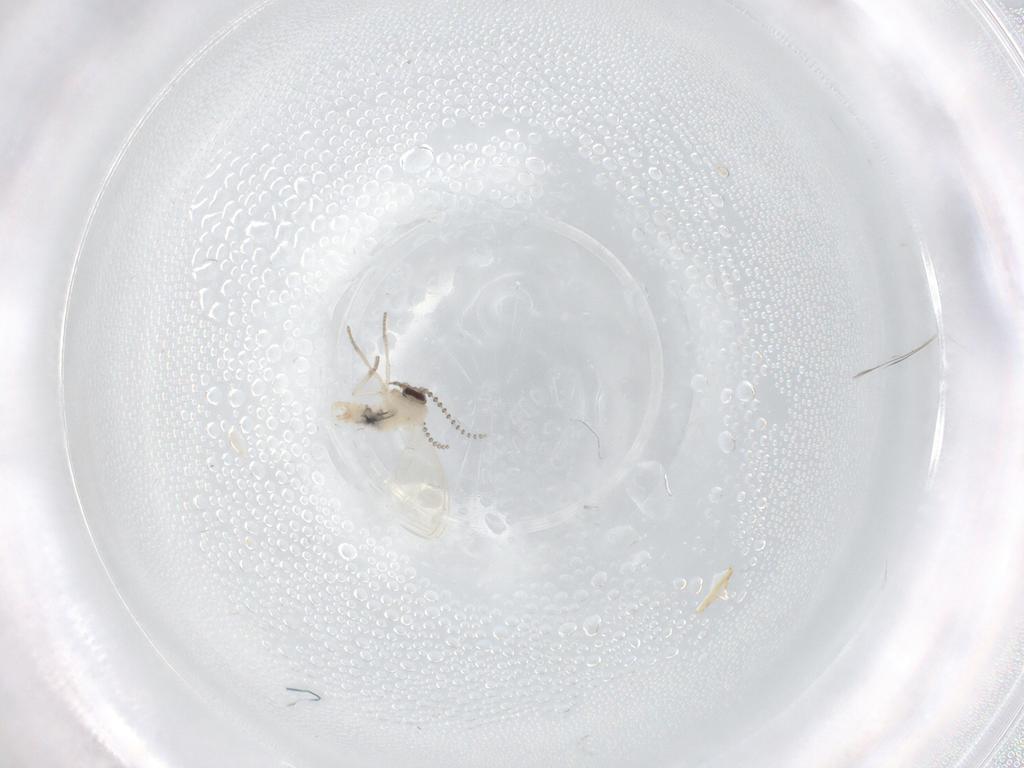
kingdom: Animalia
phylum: Arthropoda
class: Insecta
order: Diptera
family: Psychodidae
